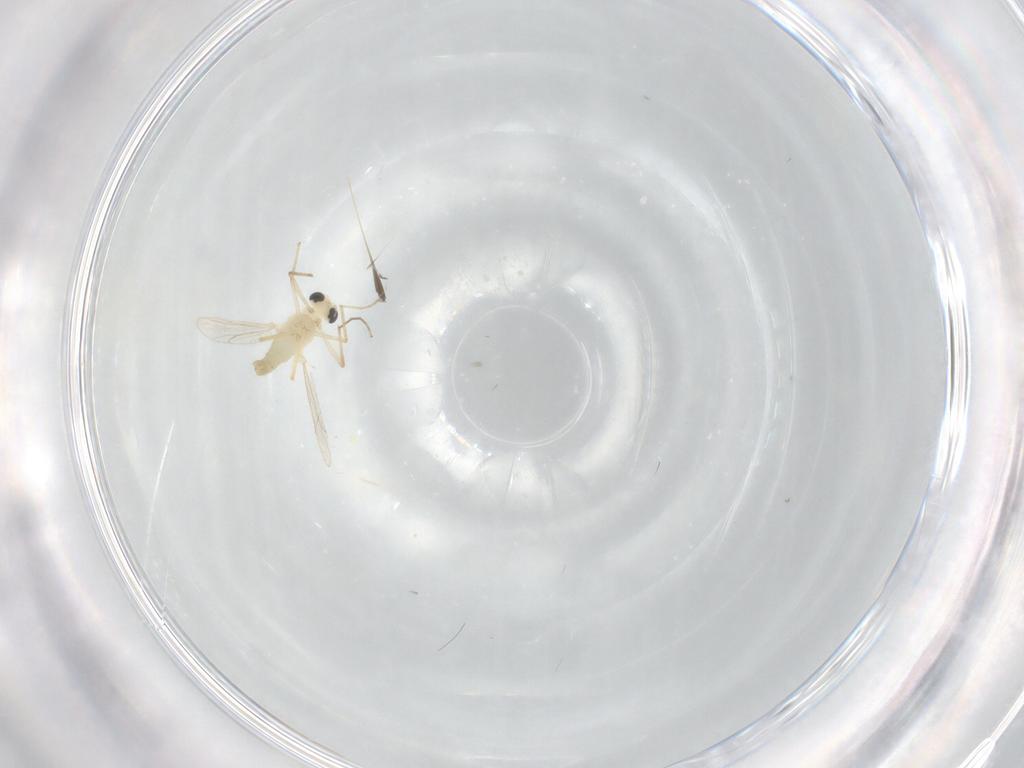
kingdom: Animalia
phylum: Arthropoda
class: Insecta
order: Diptera
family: Chironomidae
